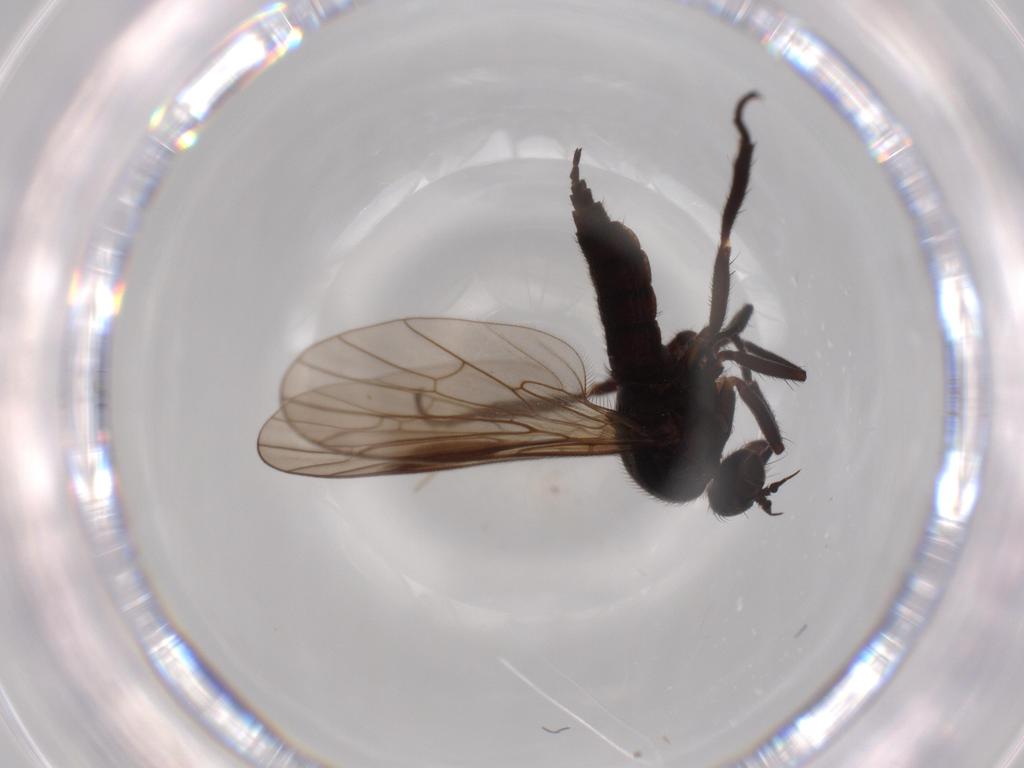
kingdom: Animalia
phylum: Arthropoda
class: Insecta
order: Diptera
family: Empididae
